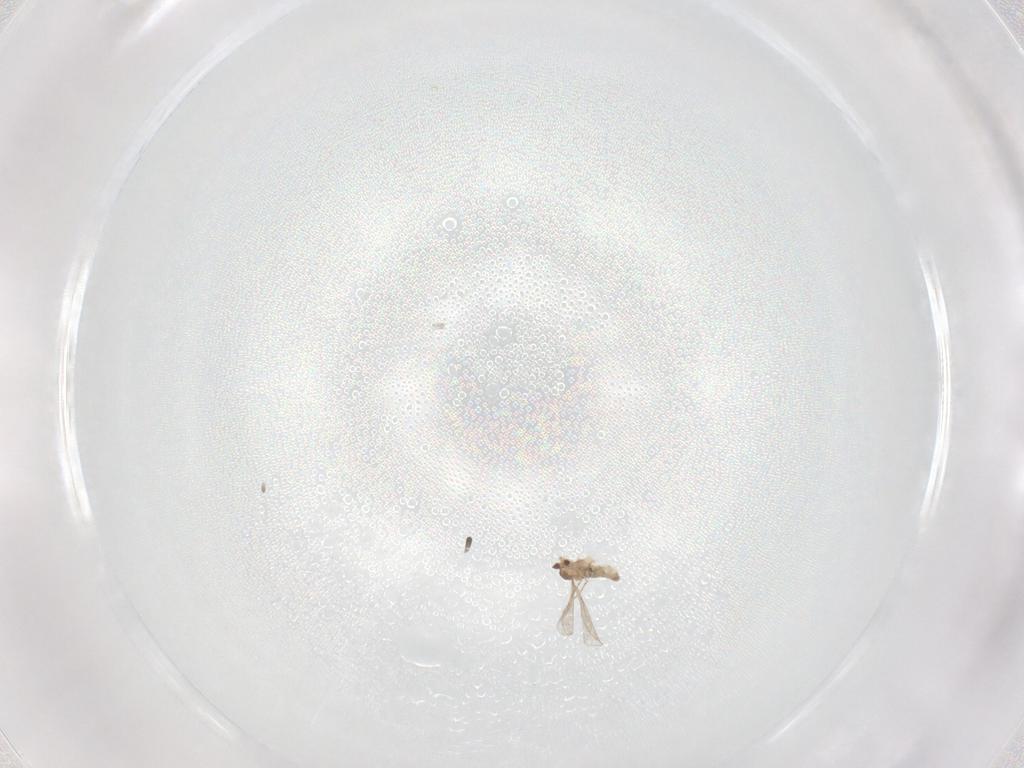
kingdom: Animalia
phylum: Arthropoda
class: Insecta
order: Diptera
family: Cecidomyiidae
